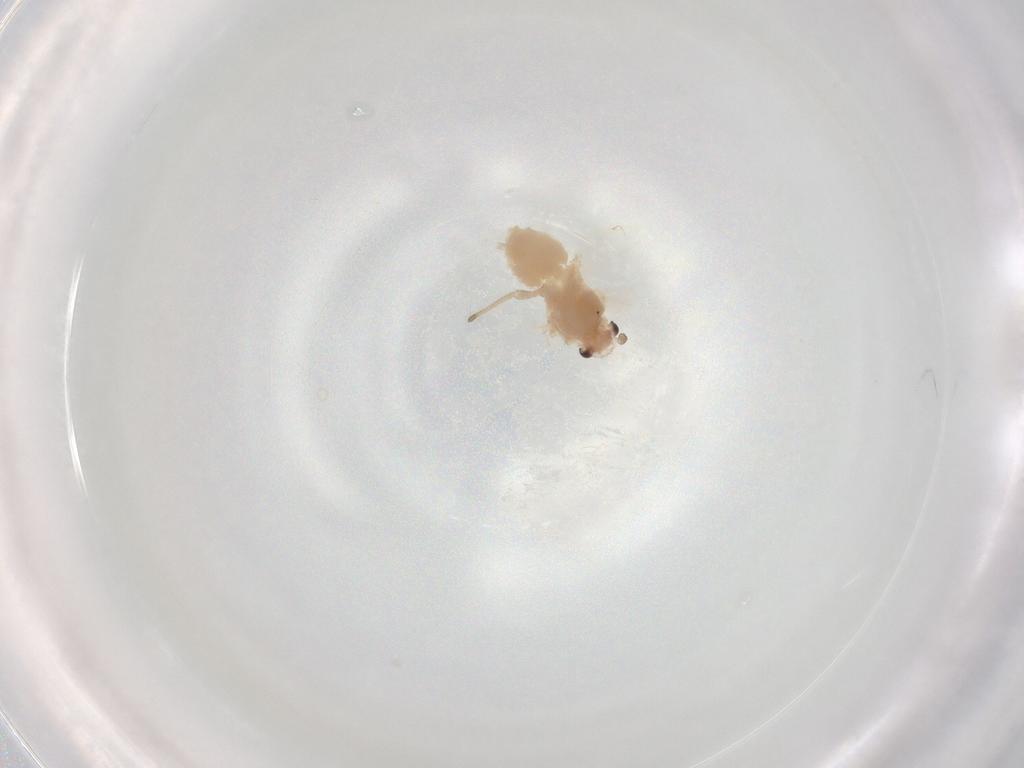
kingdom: Animalia
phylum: Arthropoda
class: Insecta
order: Hemiptera
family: Aphididae
